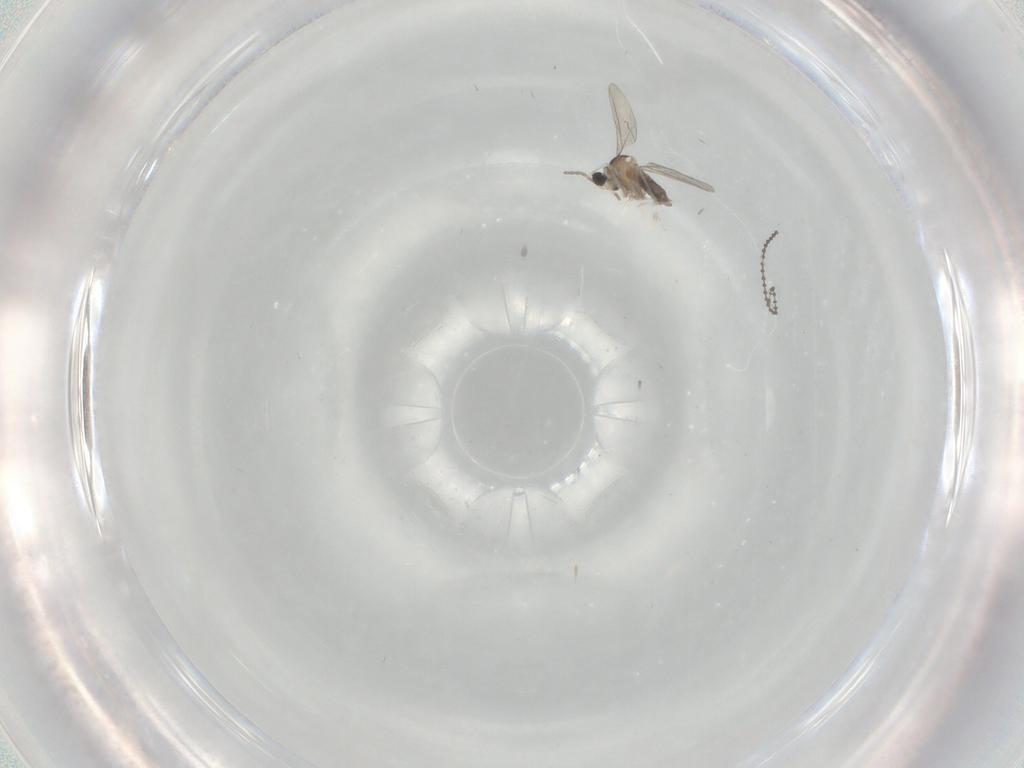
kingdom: Animalia
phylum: Arthropoda
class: Insecta
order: Diptera
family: Cecidomyiidae
